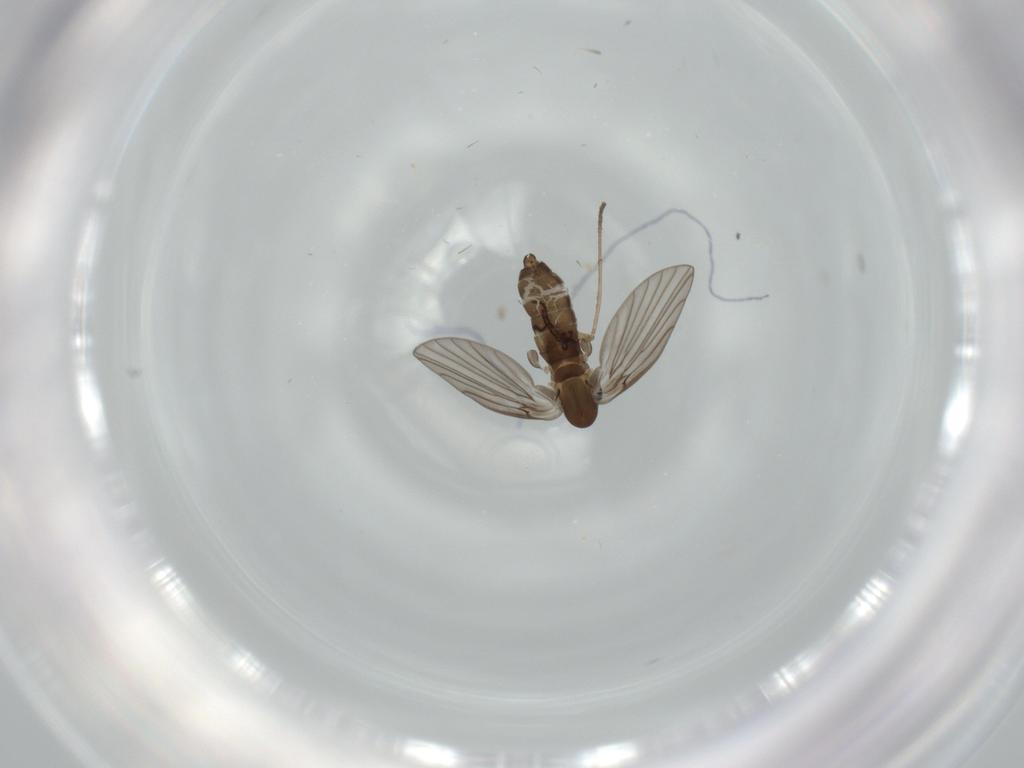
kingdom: Animalia
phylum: Arthropoda
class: Insecta
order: Diptera
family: Psychodidae
